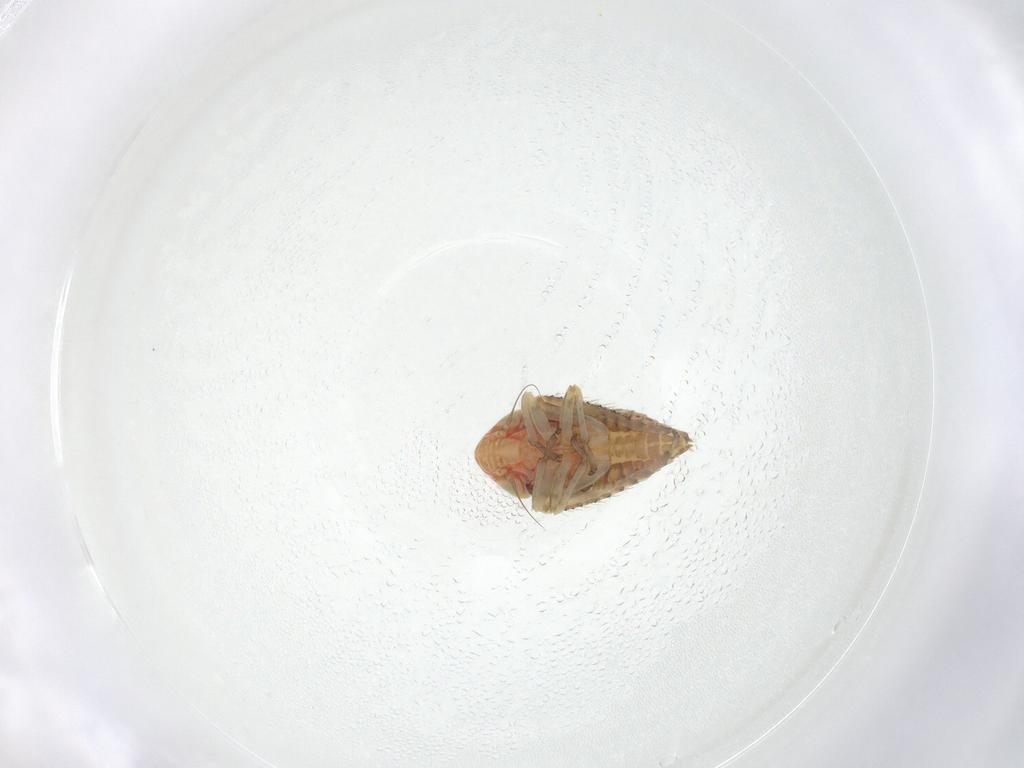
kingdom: Animalia
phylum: Arthropoda
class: Insecta
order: Hemiptera
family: Cicadellidae
